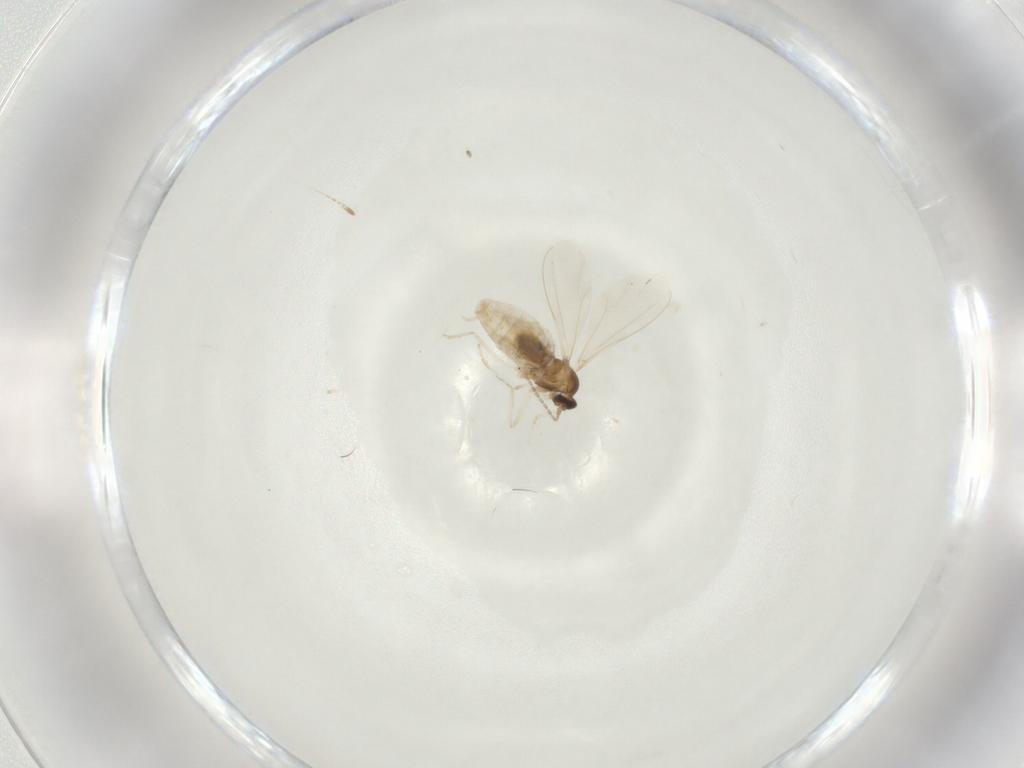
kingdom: Animalia
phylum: Arthropoda
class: Insecta
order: Diptera
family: Cecidomyiidae
